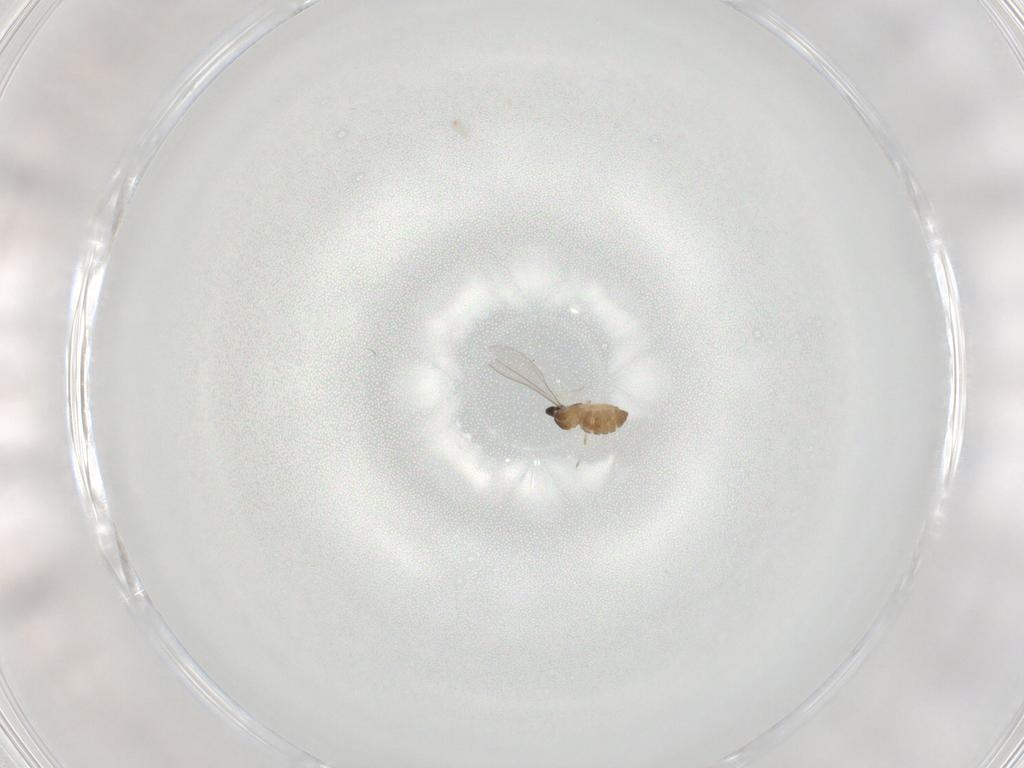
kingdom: Animalia
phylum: Arthropoda
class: Insecta
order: Diptera
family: Cecidomyiidae
